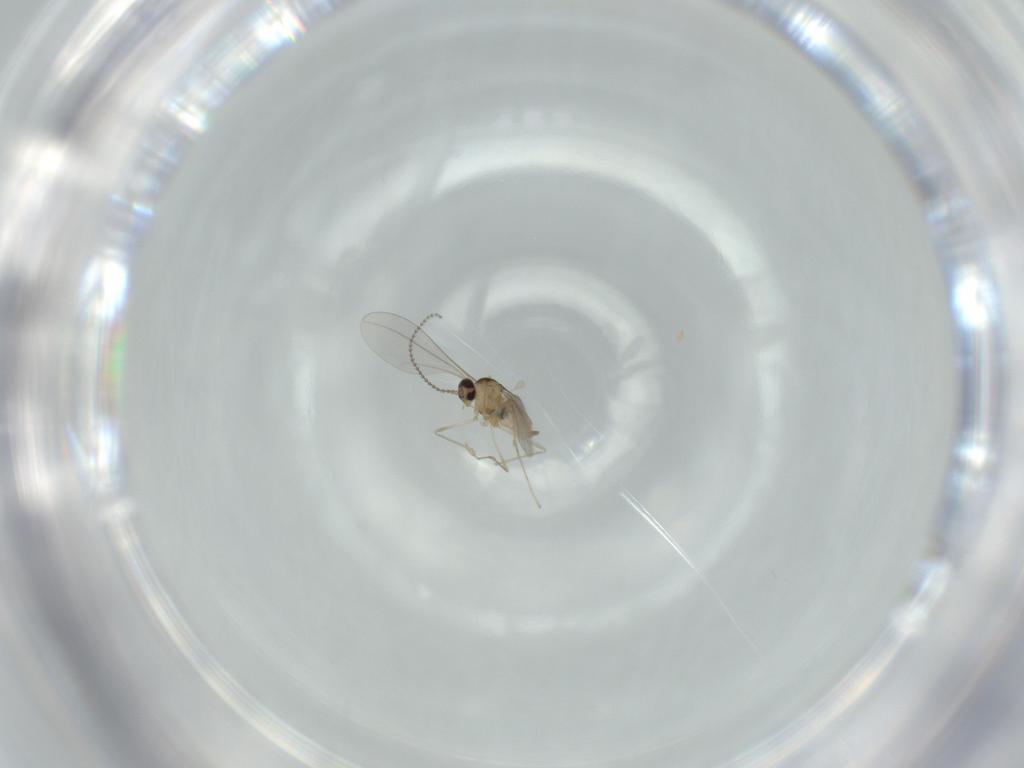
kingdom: Animalia
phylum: Arthropoda
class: Insecta
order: Diptera
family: Cecidomyiidae
